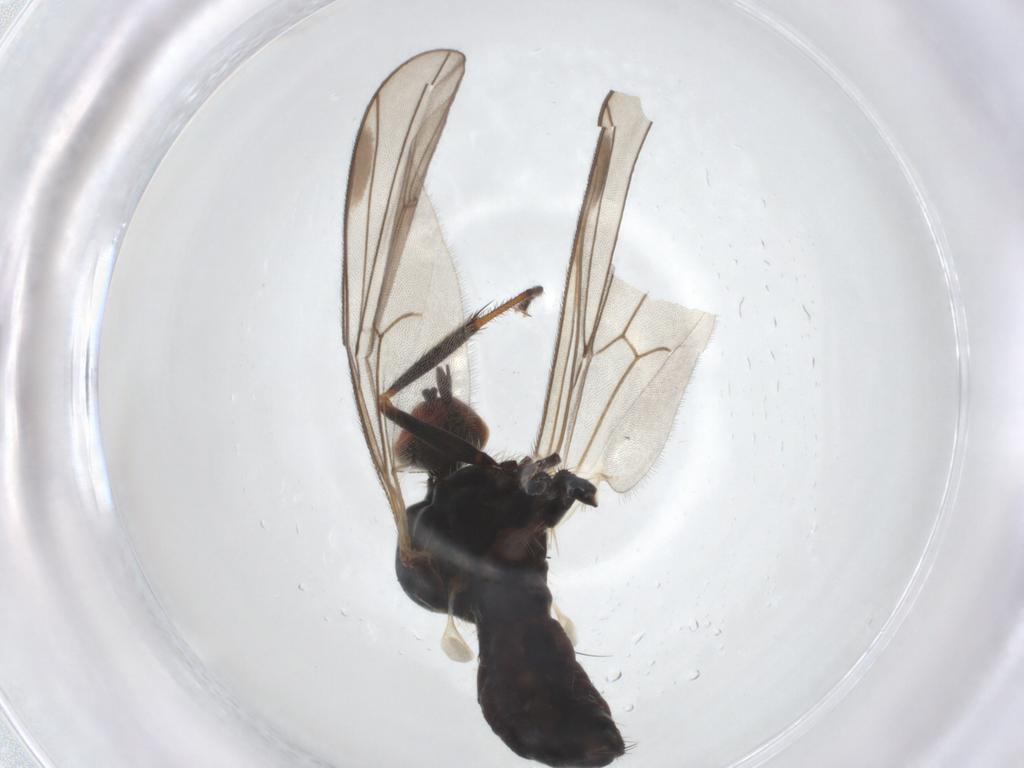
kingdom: Animalia
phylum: Arthropoda
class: Insecta
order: Diptera
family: Hybotidae
